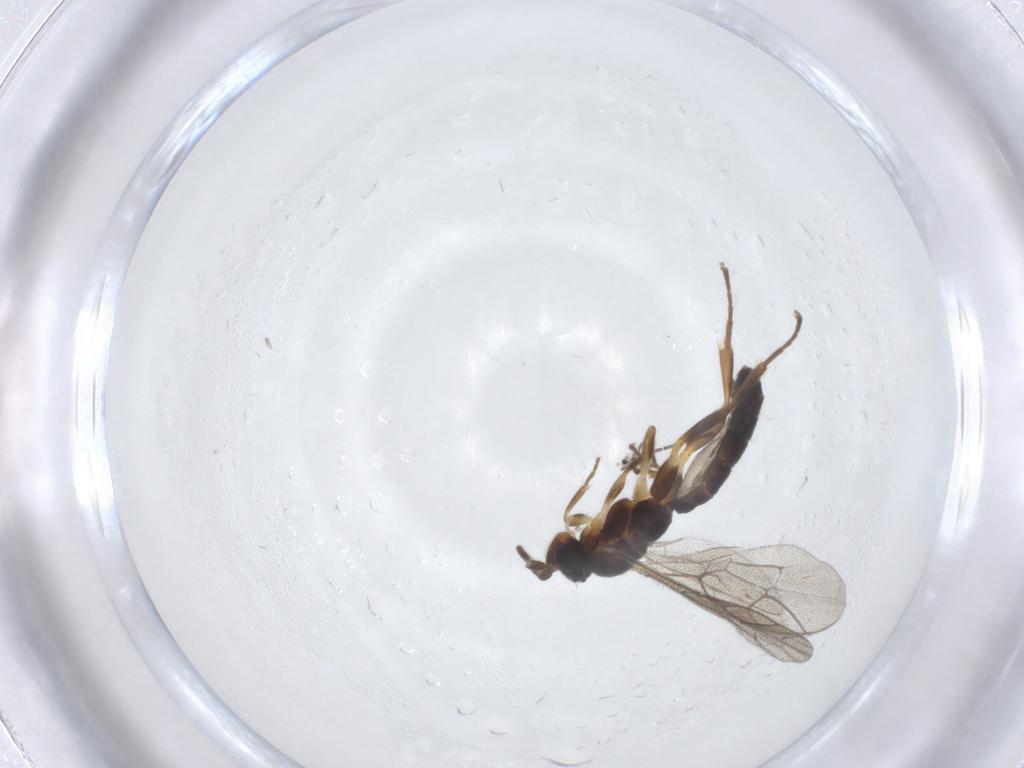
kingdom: Animalia
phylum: Arthropoda
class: Insecta
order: Hymenoptera
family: Ichneumonidae
